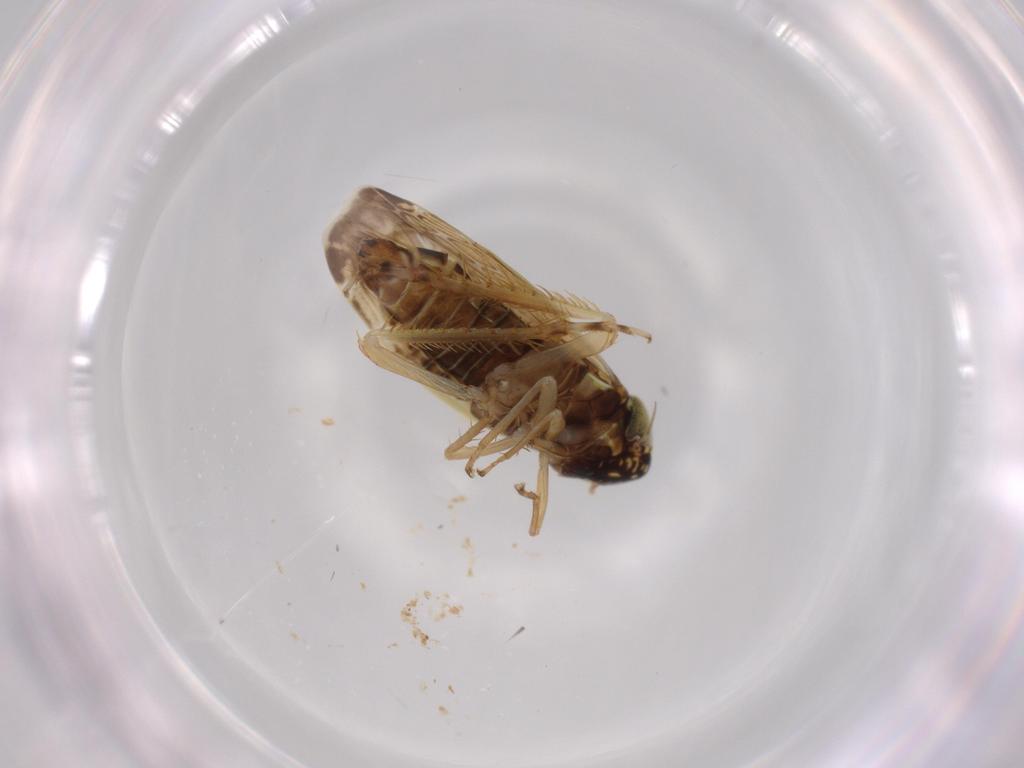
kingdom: Animalia
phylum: Arthropoda
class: Insecta
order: Hemiptera
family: Cicadellidae
